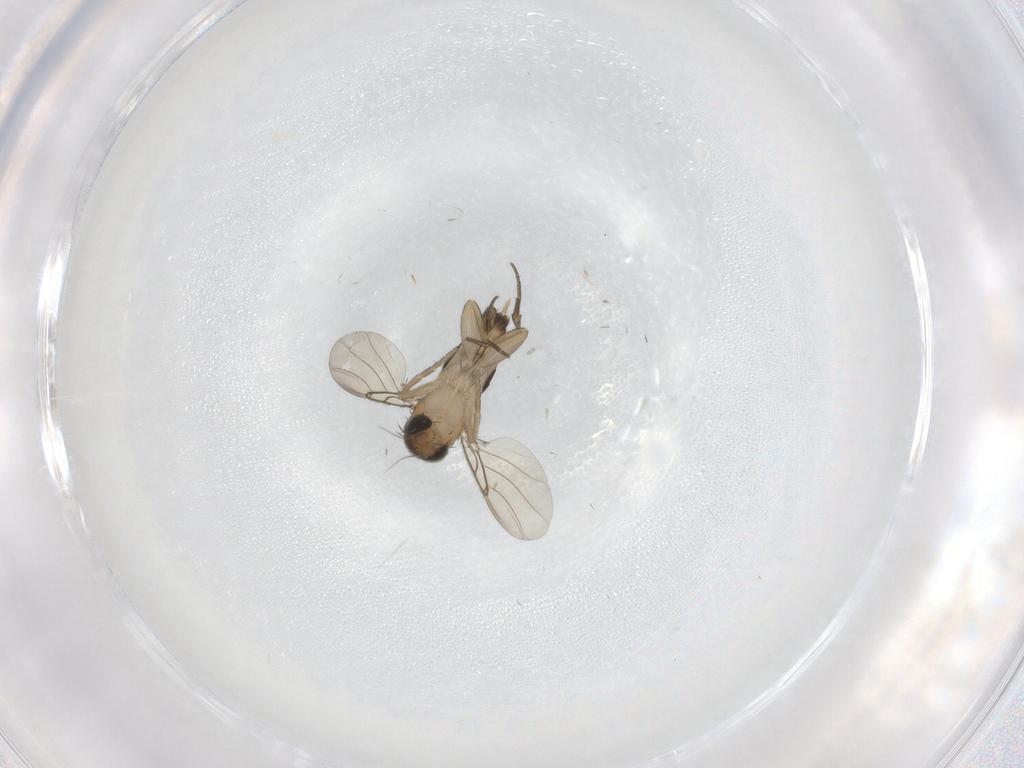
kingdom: Animalia
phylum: Arthropoda
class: Insecta
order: Diptera
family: Phoridae
